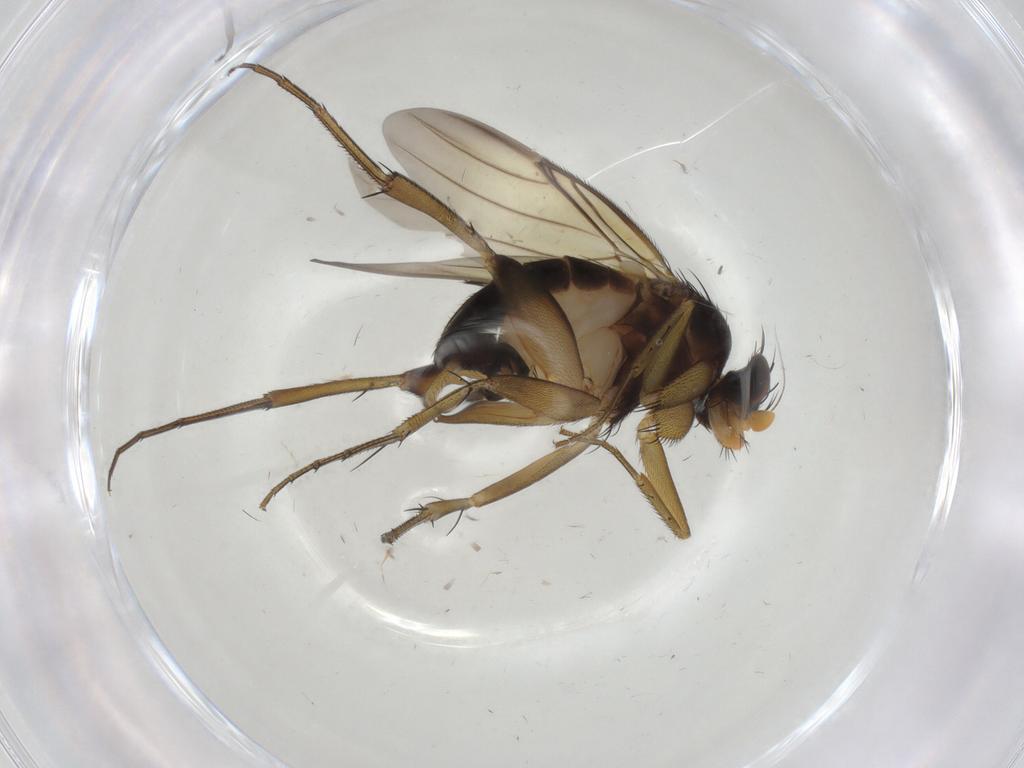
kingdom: Animalia
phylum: Arthropoda
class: Insecta
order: Diptera
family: Phoridae
